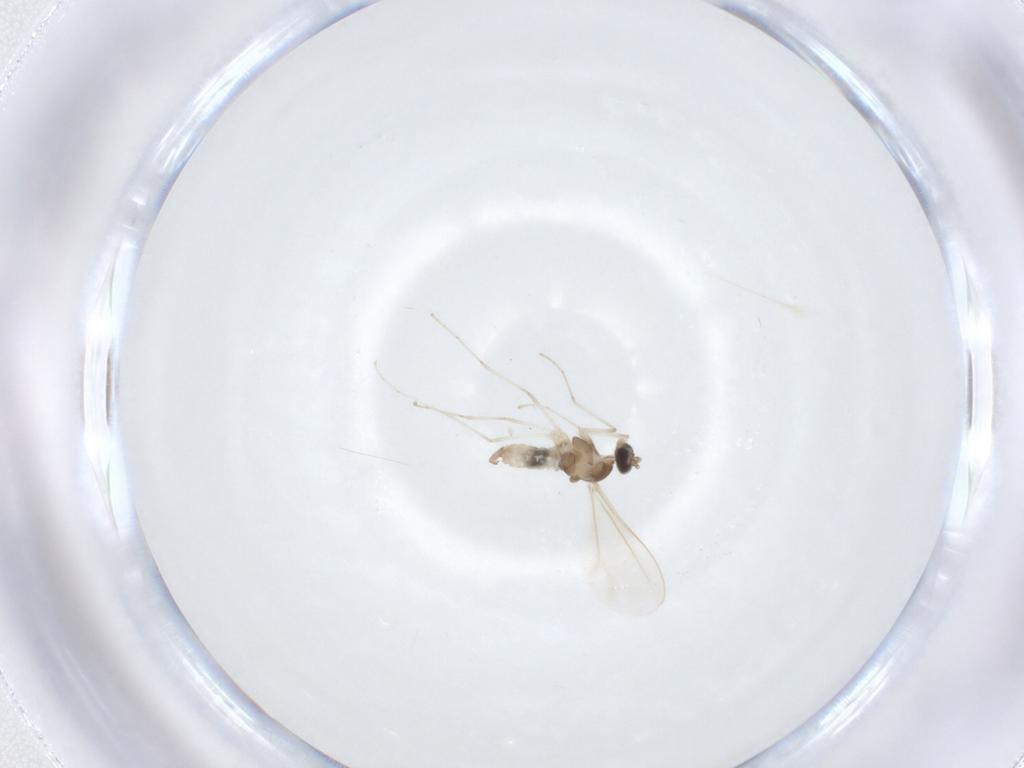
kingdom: Animalia
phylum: Arthropoda
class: Insecta
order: Diptera
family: Cecidomyiidae
